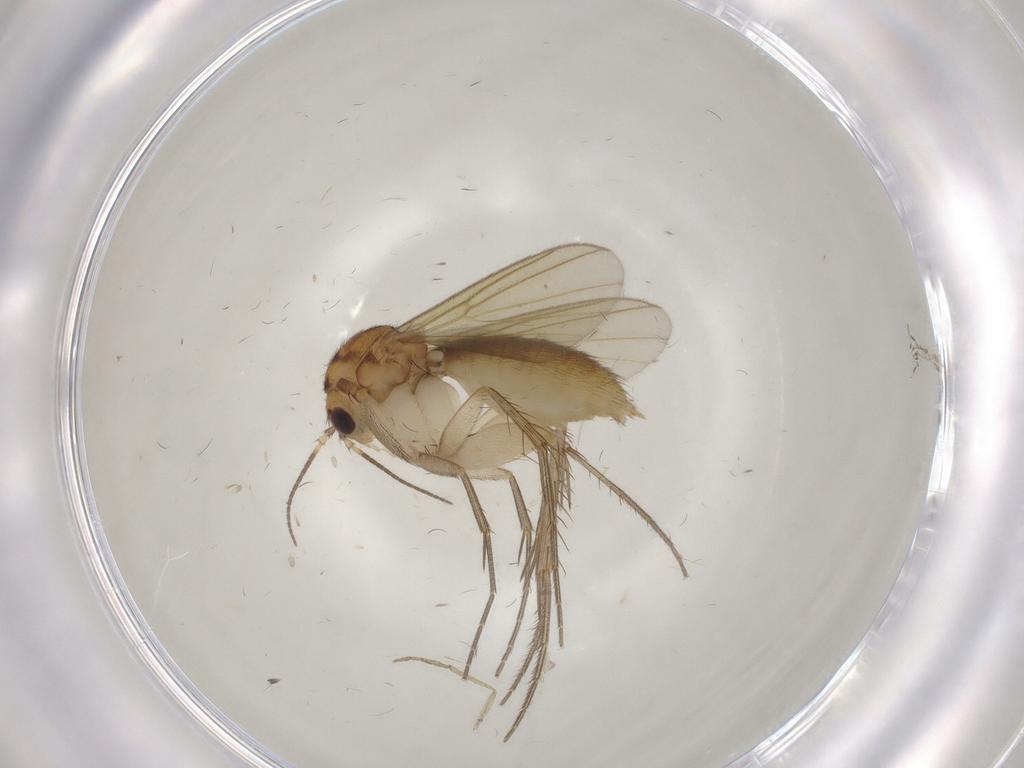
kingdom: Animalia
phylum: Arthropoda
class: Insecta
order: Diptera
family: Mycetophilidae
